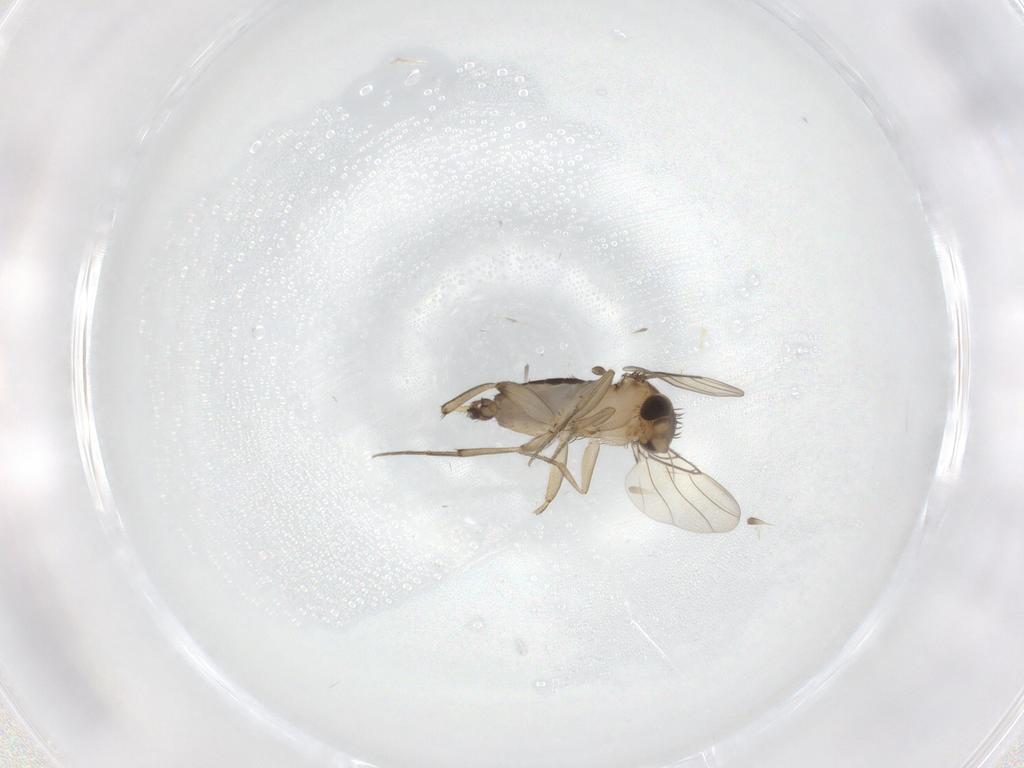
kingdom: Animalia
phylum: Arthropoda
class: Insecta
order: Diptera
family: Phoridae
